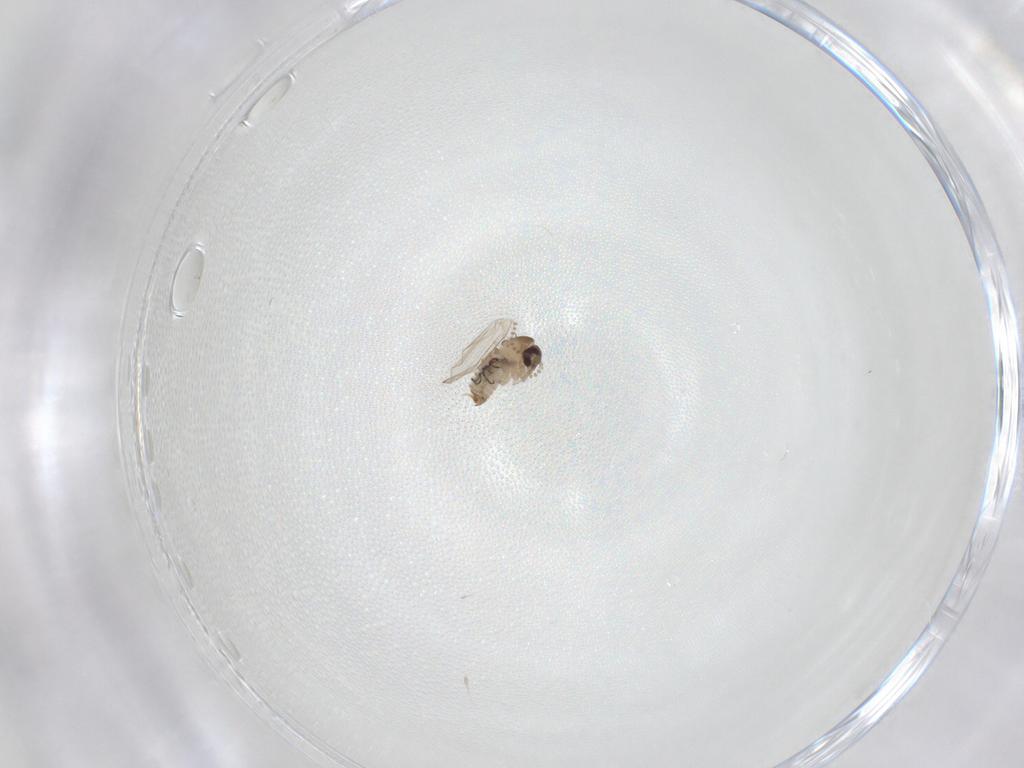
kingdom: Animalia
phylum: Arthropoda
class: Insecta
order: Diptera
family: Psychodidae
